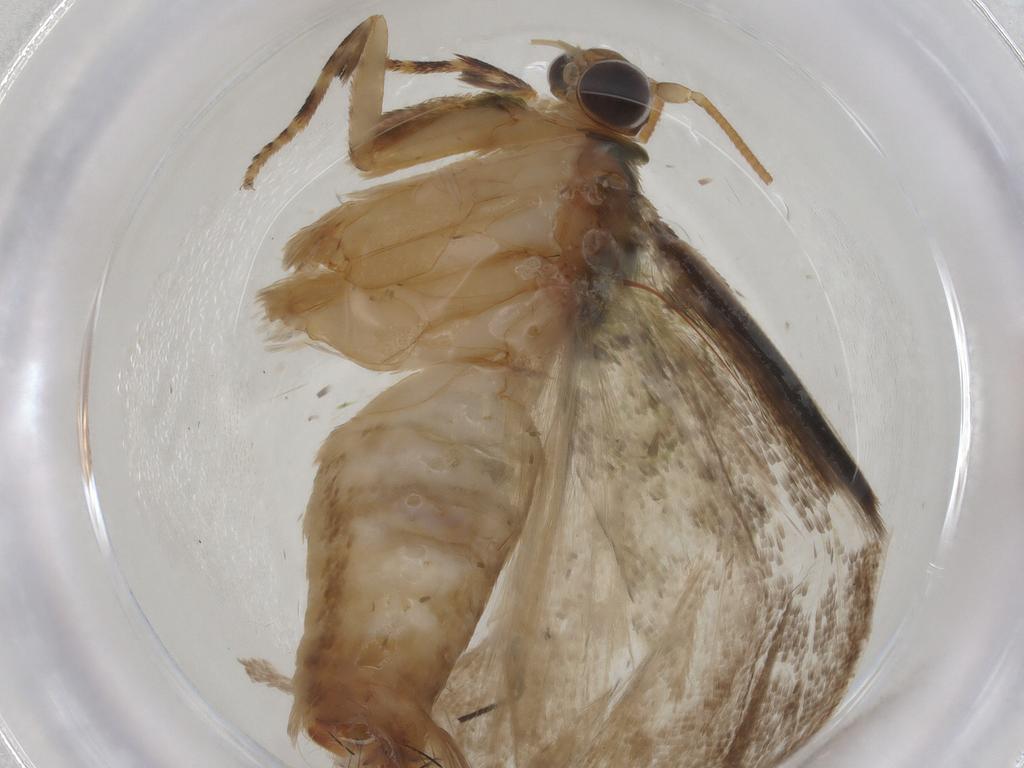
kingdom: Animalia
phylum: Arthropoda
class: Insecta
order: Lepidoptera
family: Tortricidae
